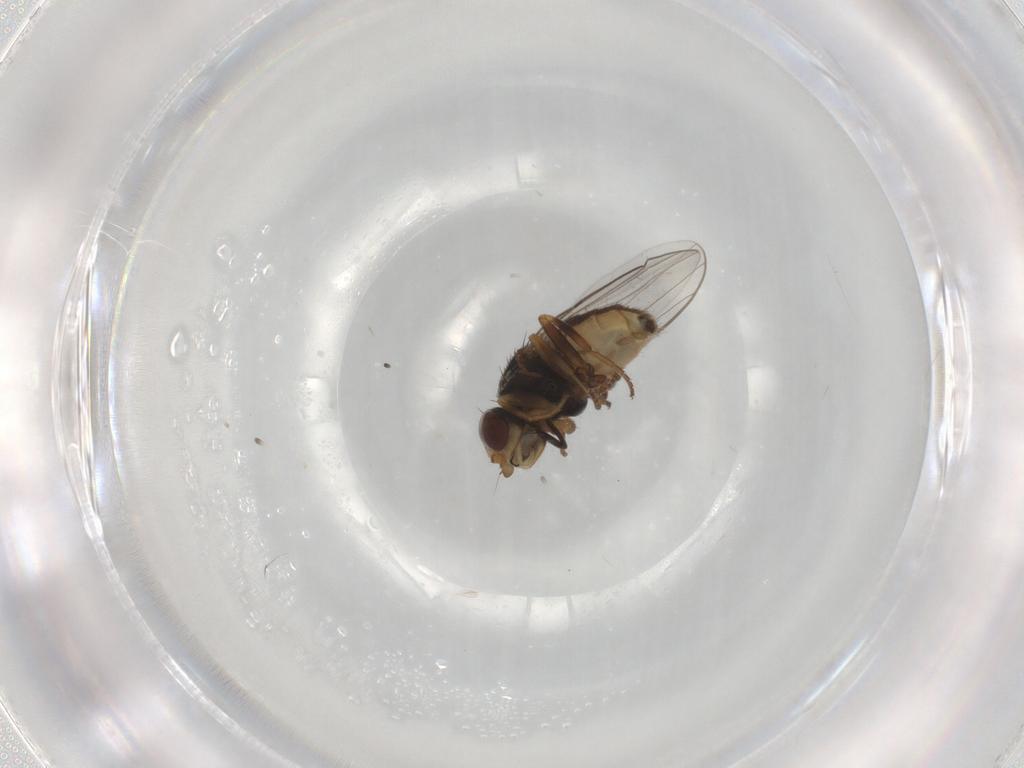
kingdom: Animalia
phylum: Arthropoda
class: Insecta
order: Diptera
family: Chloropidae
